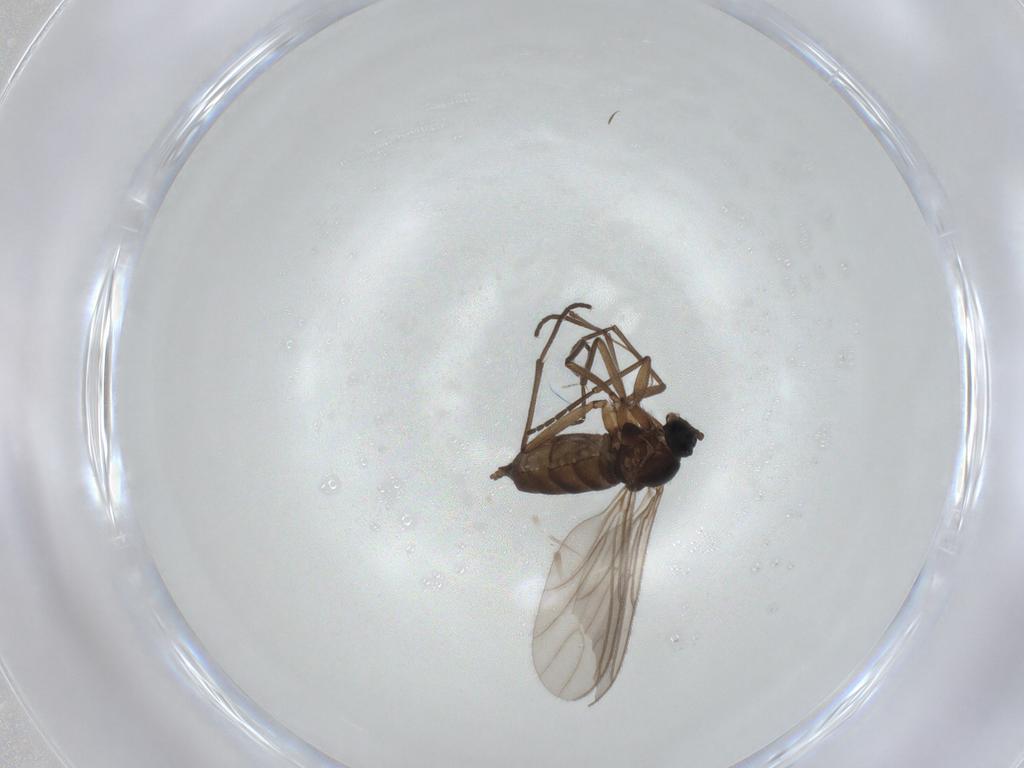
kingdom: Animalia
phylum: Arthropoda
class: Insecta
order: Diptera
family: Sciaridae
